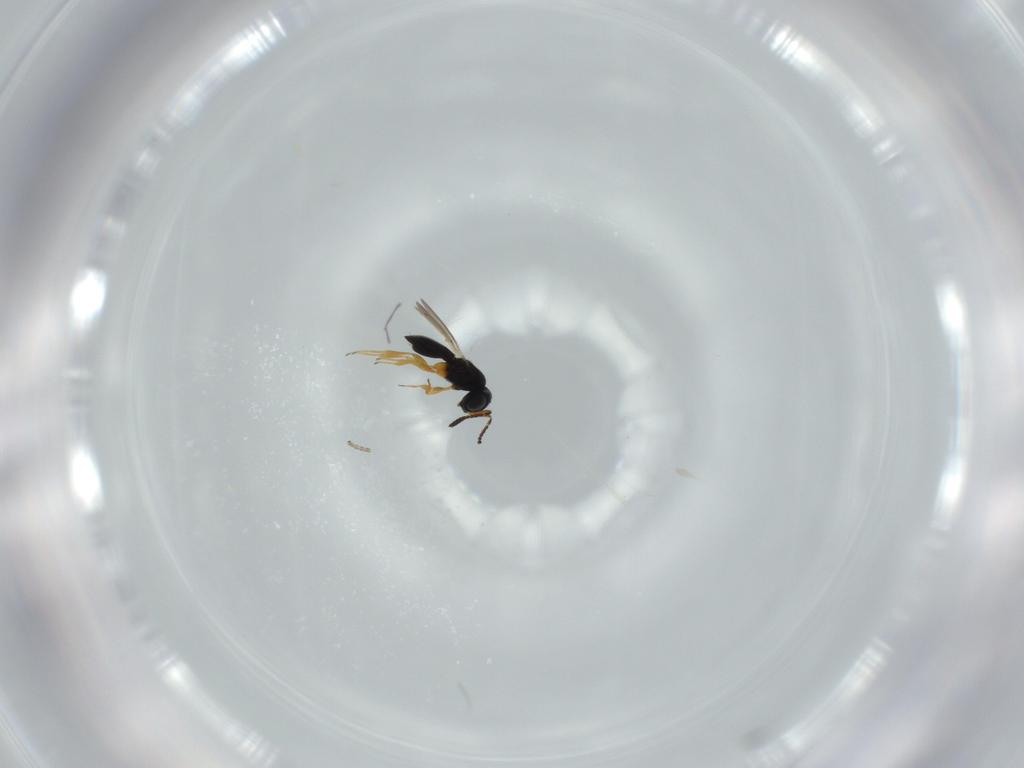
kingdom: Animalia
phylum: Arthropoda
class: Insecta
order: Hymenoptera
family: Scelionidae
